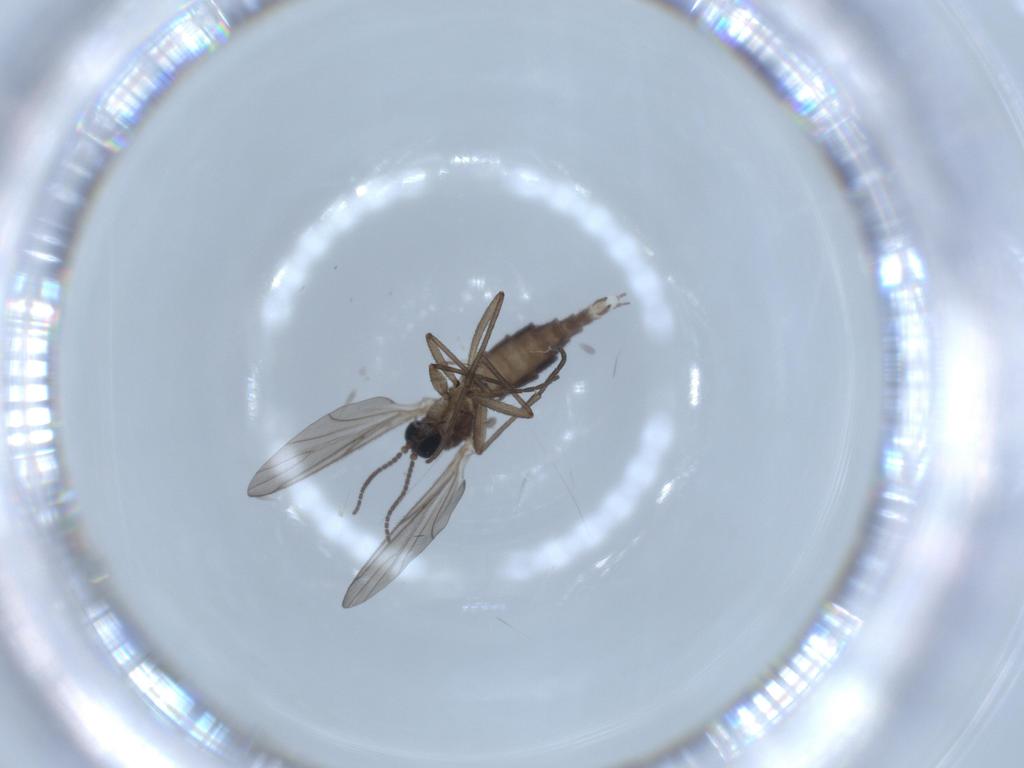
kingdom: Animalia
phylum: Arthropoda
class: Insecta
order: Diptera
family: Sciaridae
